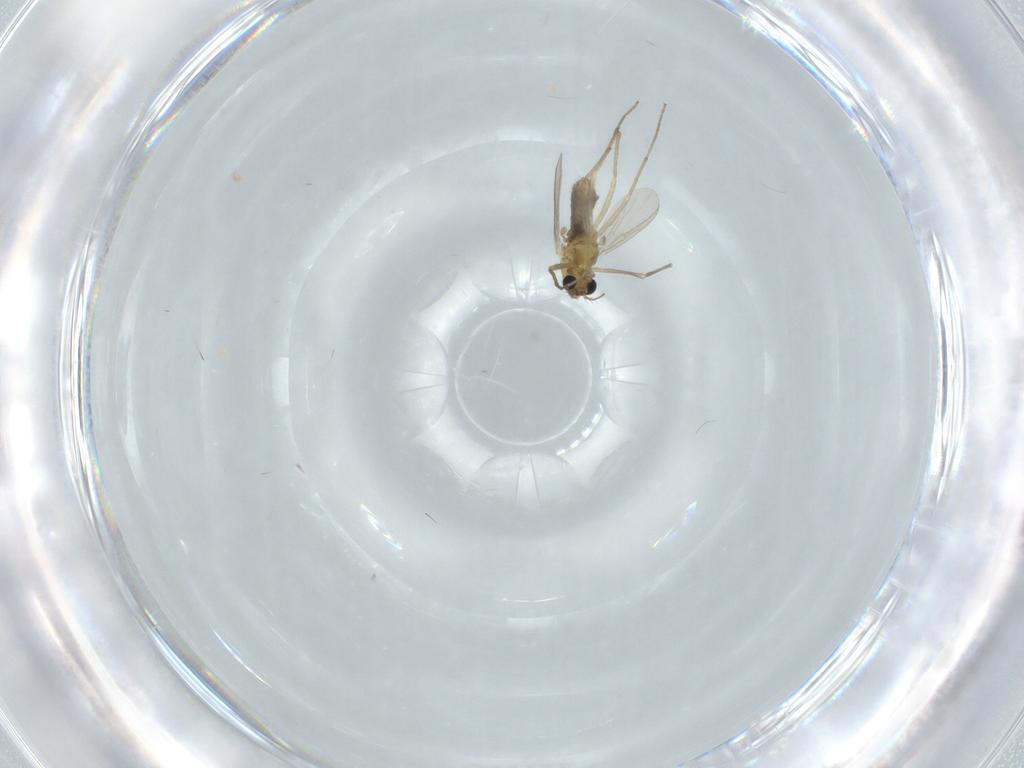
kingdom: Animalia
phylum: Arthropoda
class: Insecta
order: Diptera
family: Chironomidae
